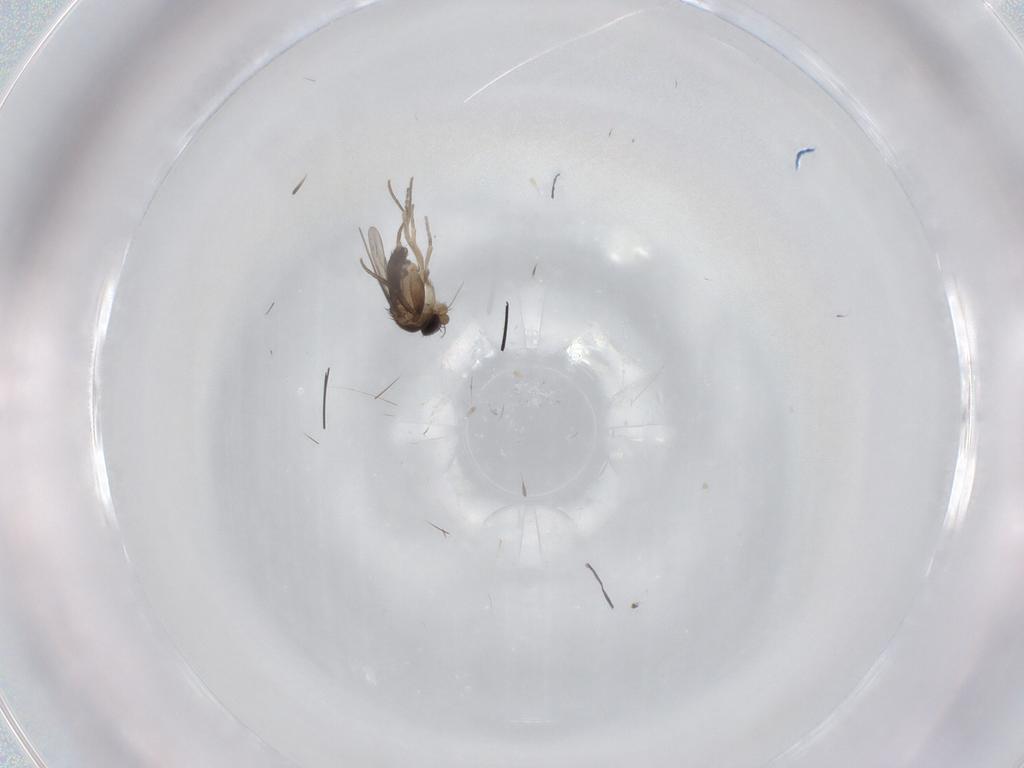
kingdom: Animalia
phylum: Arthropoda
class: Insecta
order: Diptera
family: Phoridae
